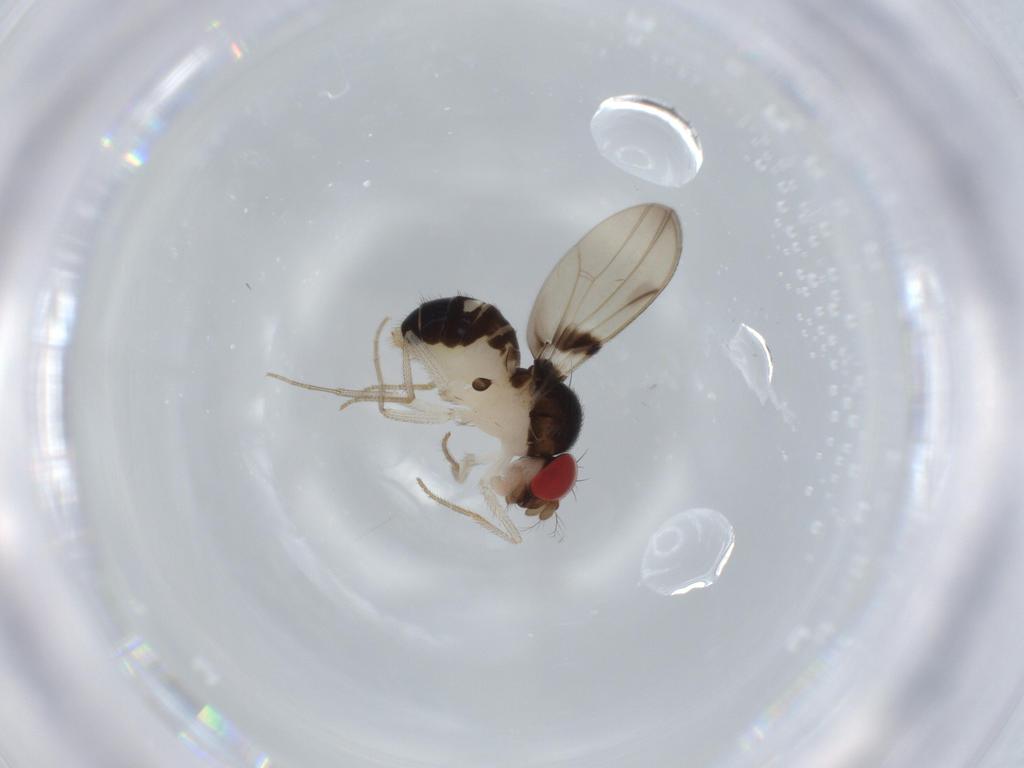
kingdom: Animalia
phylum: Arthropoda
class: Insecta
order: Diptera
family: Drosophilidae
